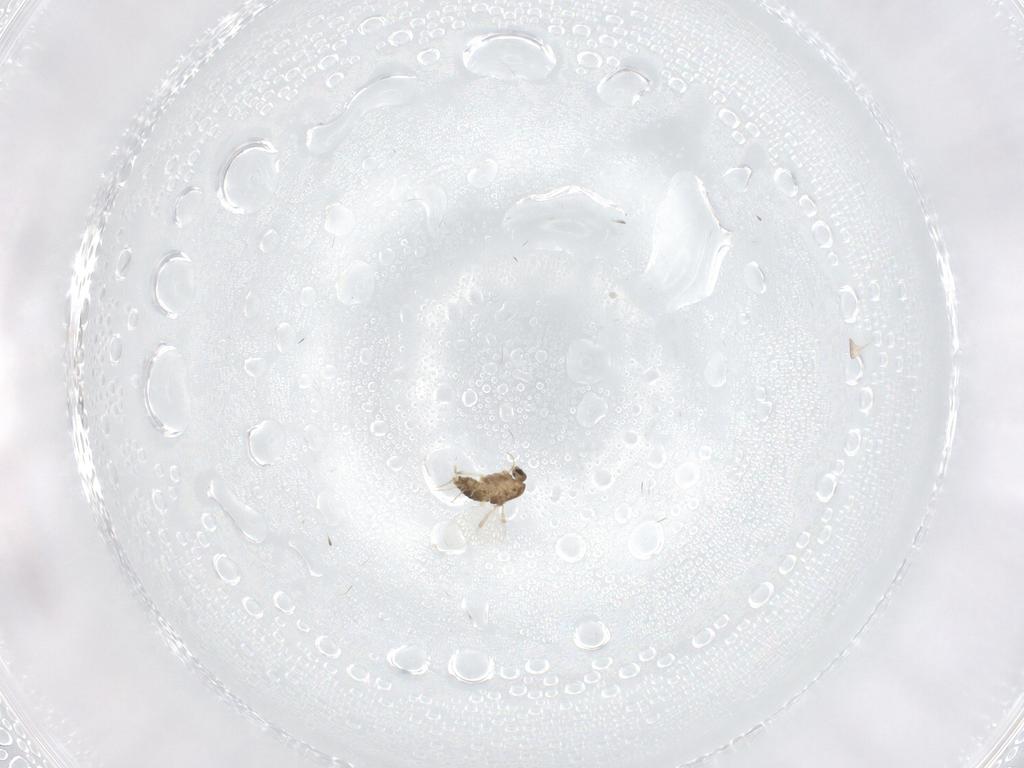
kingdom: Animalia
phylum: Arthropoda
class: Insecta
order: Diptera
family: Chironomidae
